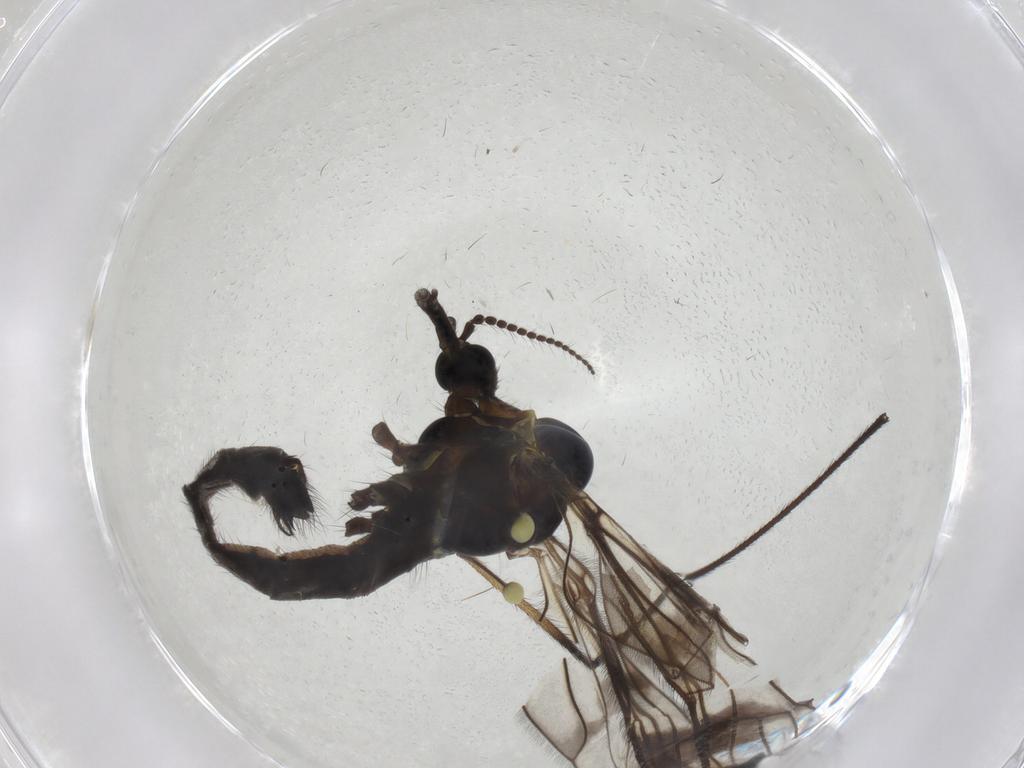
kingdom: Animalia
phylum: Arthropoda
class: Insecta
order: Diptera
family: Limoniidae
